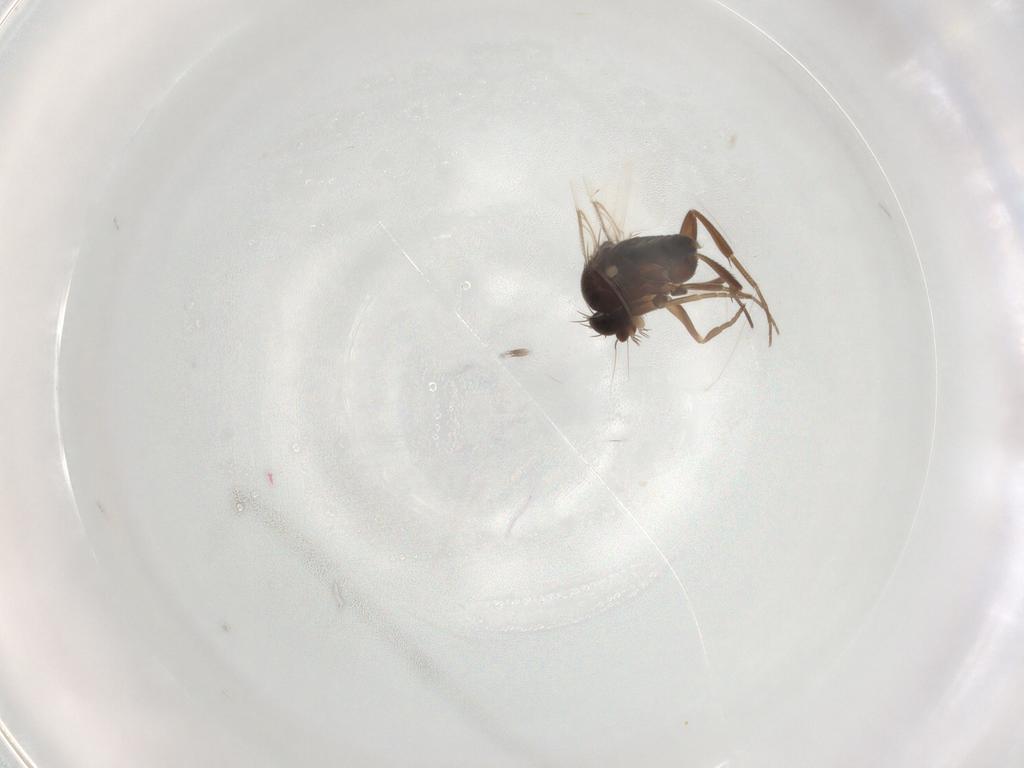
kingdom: Animalia
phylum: Arthropoda
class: Insecta
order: Diptera
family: Phoridae
